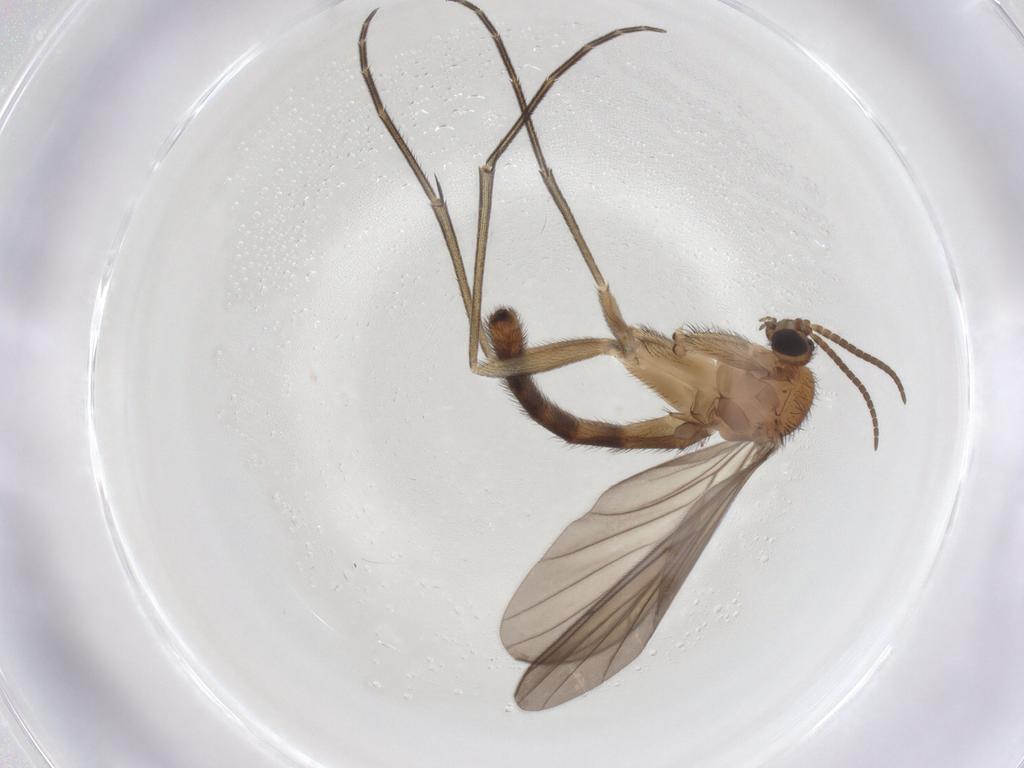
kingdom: Animalia
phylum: Arthropoda
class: Insecta
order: Diptera
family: Keroplatidae
